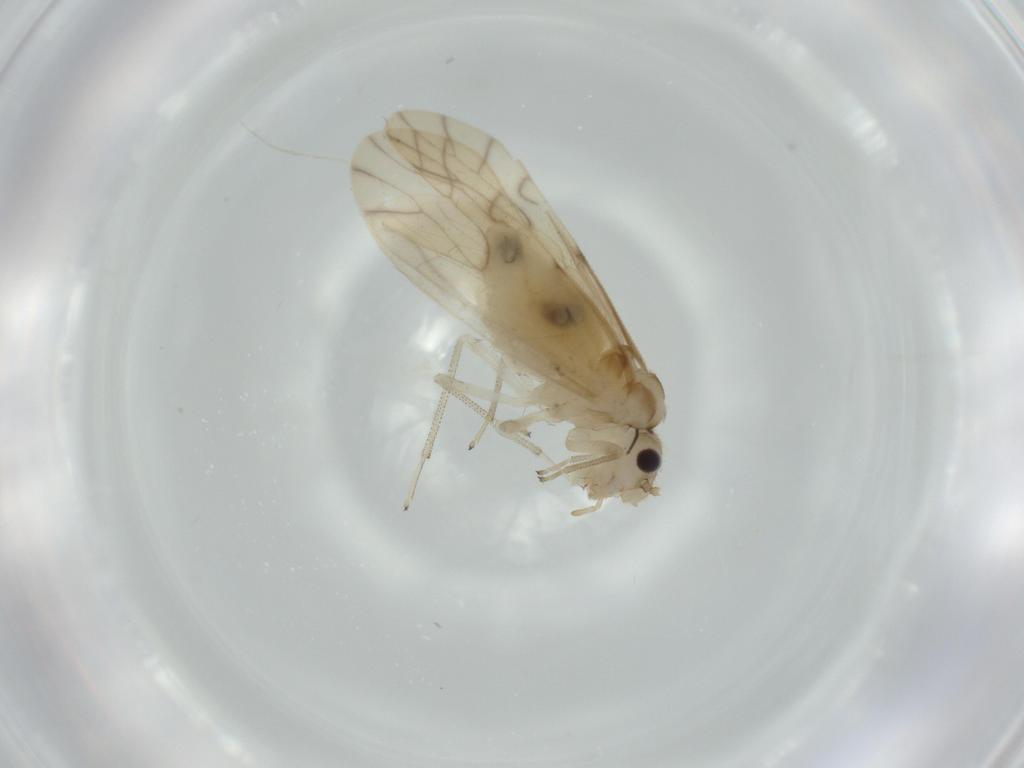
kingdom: Animalia
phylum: Arthropoda
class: Insecta
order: Psocodea
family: Caeciliusidae
